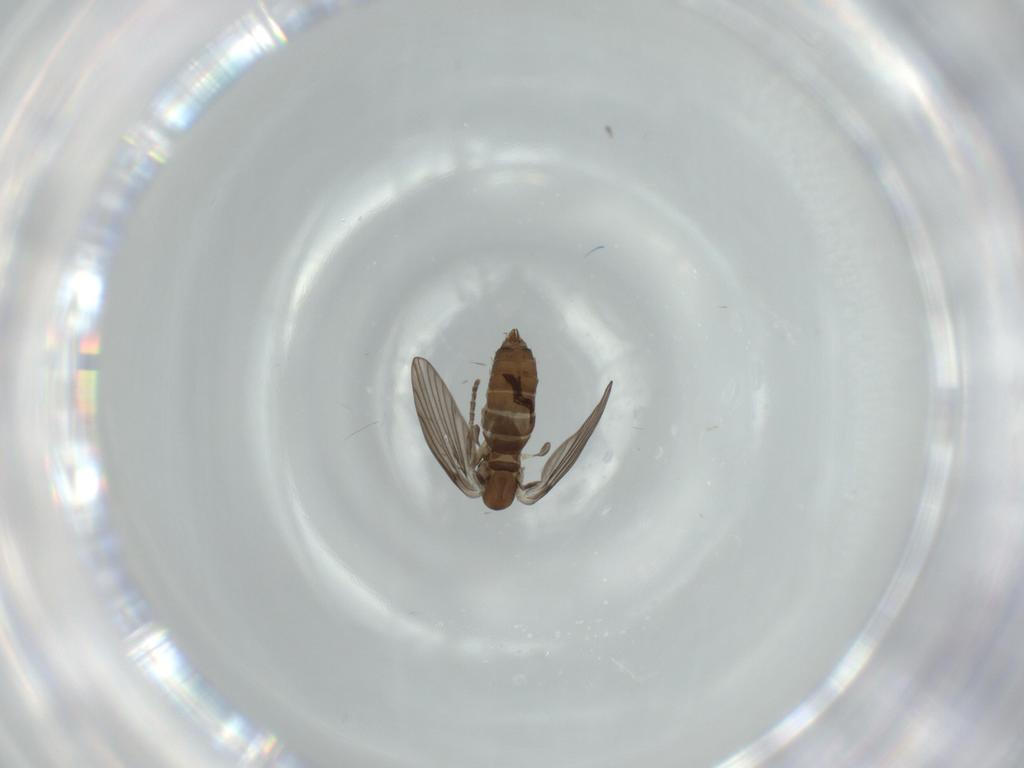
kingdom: Animalia
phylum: Arthropoda
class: Insecta
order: Diptera
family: Psychodidae
